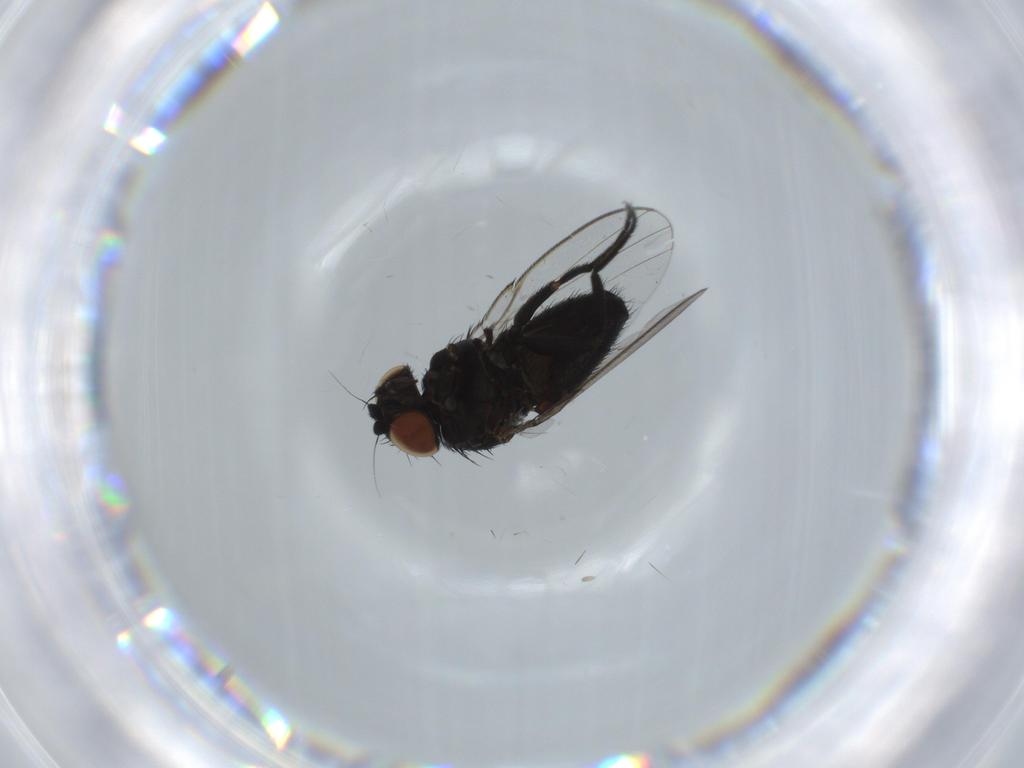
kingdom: Animalia
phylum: Arthropoda
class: Insecta
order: Diptera
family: Milichiidae
